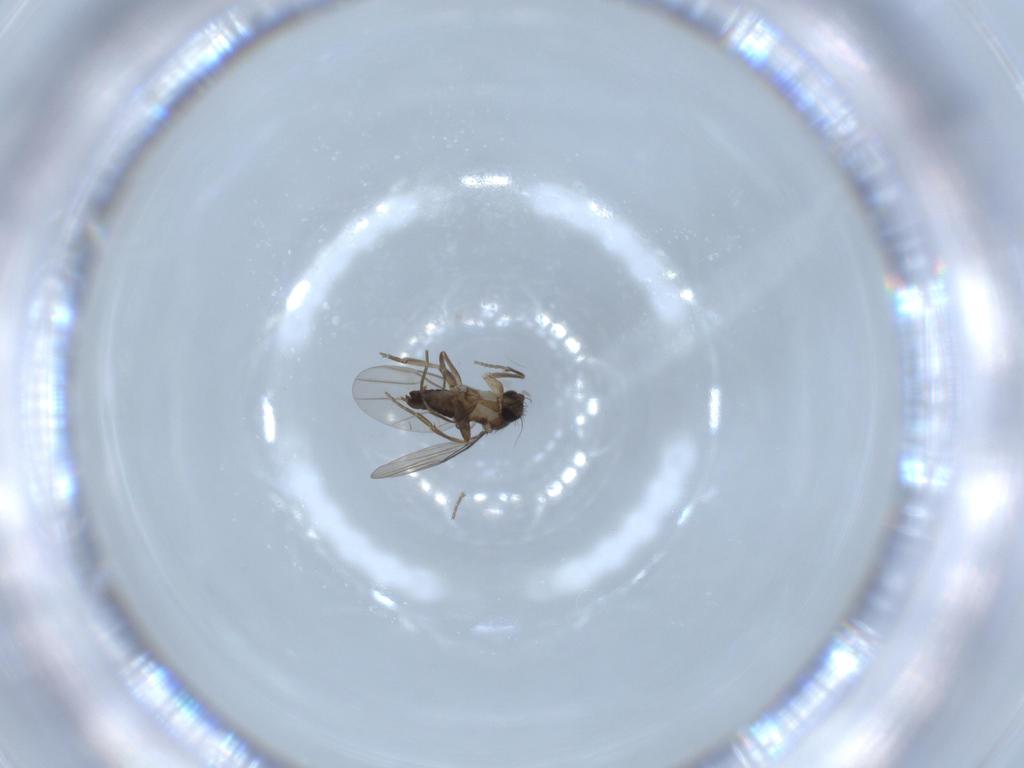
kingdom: Animalia
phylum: Arthropoda
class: Insecta
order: Diptera
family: Phoridae
